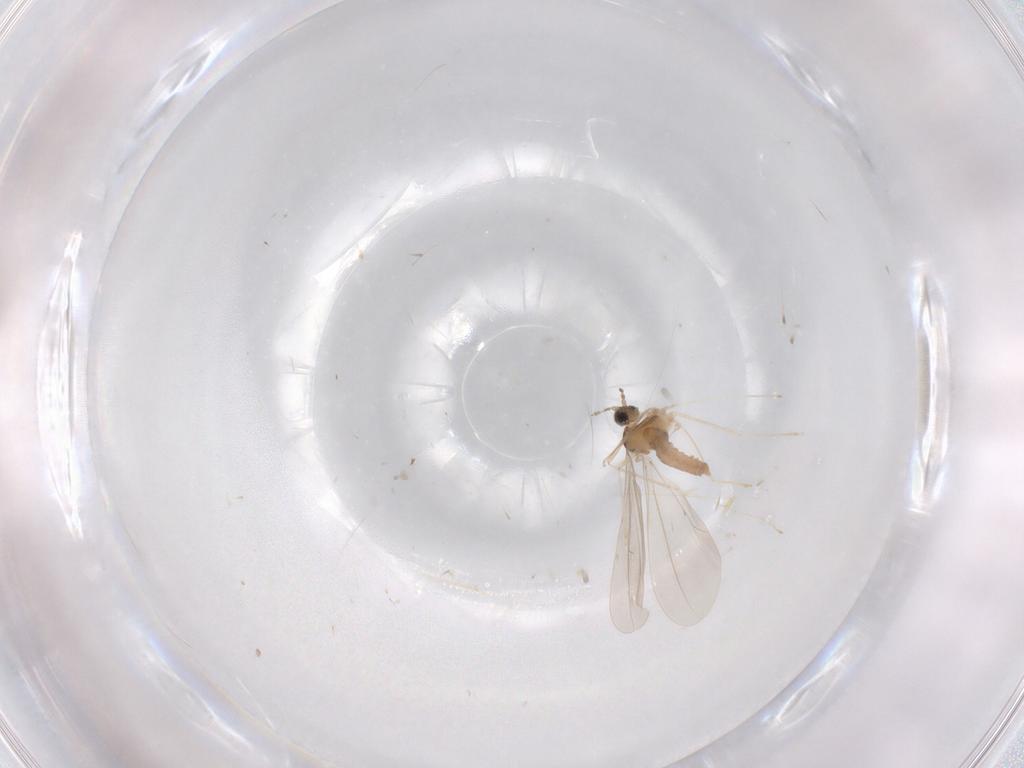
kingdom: Animalia
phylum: Arthropoda
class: Insecta
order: Diptera
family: Cecidomyiidae
